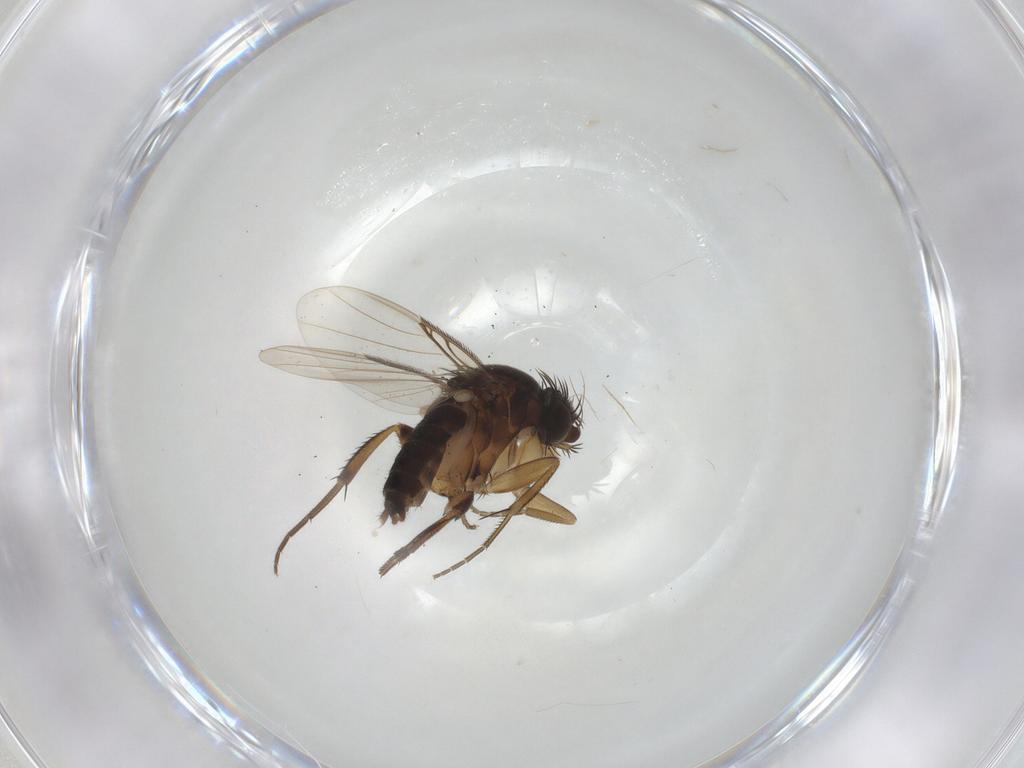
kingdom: Animalia
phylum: Arthropoda
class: Insecta
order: Diptera
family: Phoridae
